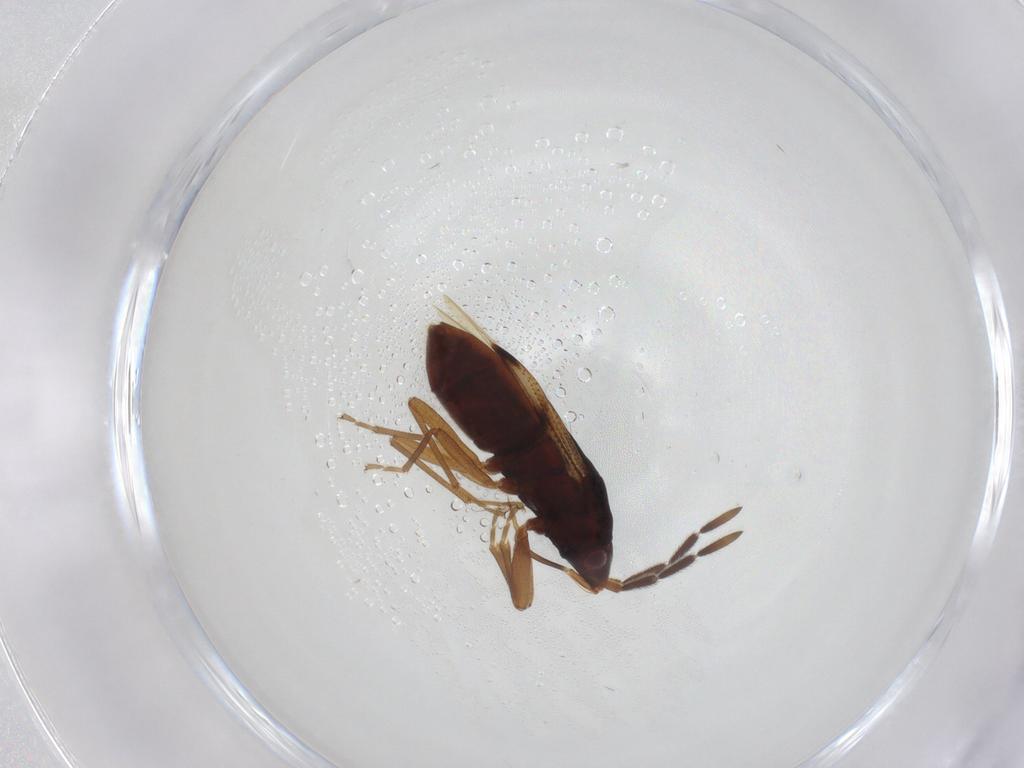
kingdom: Animalia
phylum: Arthropoda
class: Insecta
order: Hemiptera
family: Rhyparochromidae
